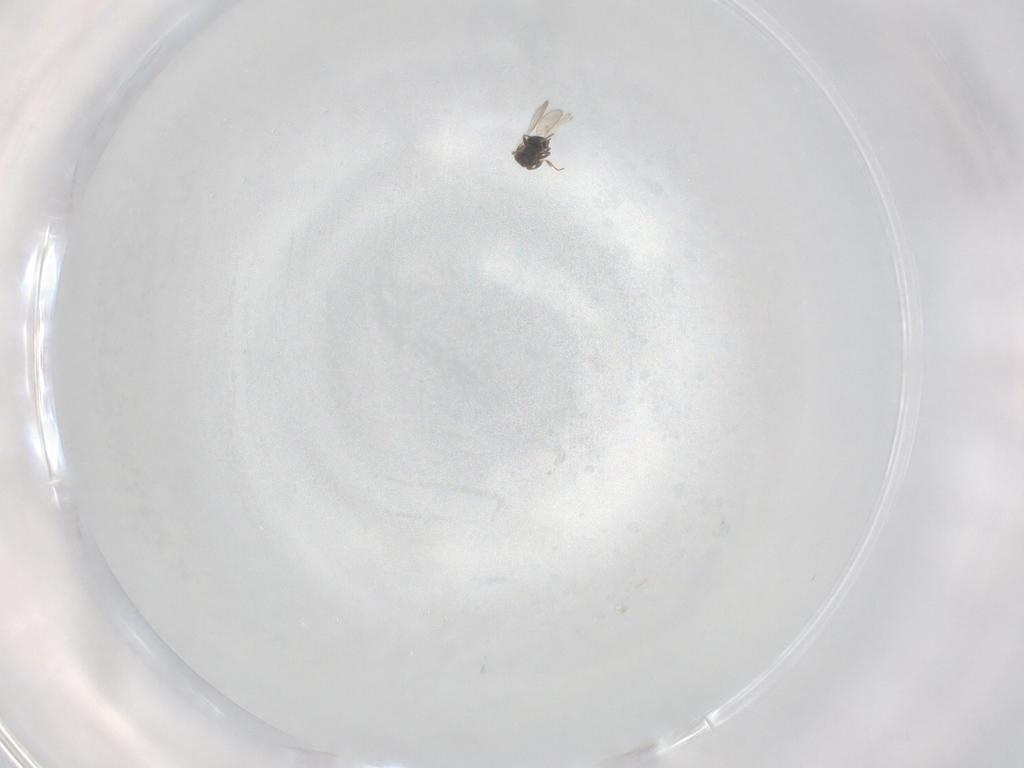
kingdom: Animalia
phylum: Arthropoda
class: Insecta
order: Hymenoptera
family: Scelionidae
